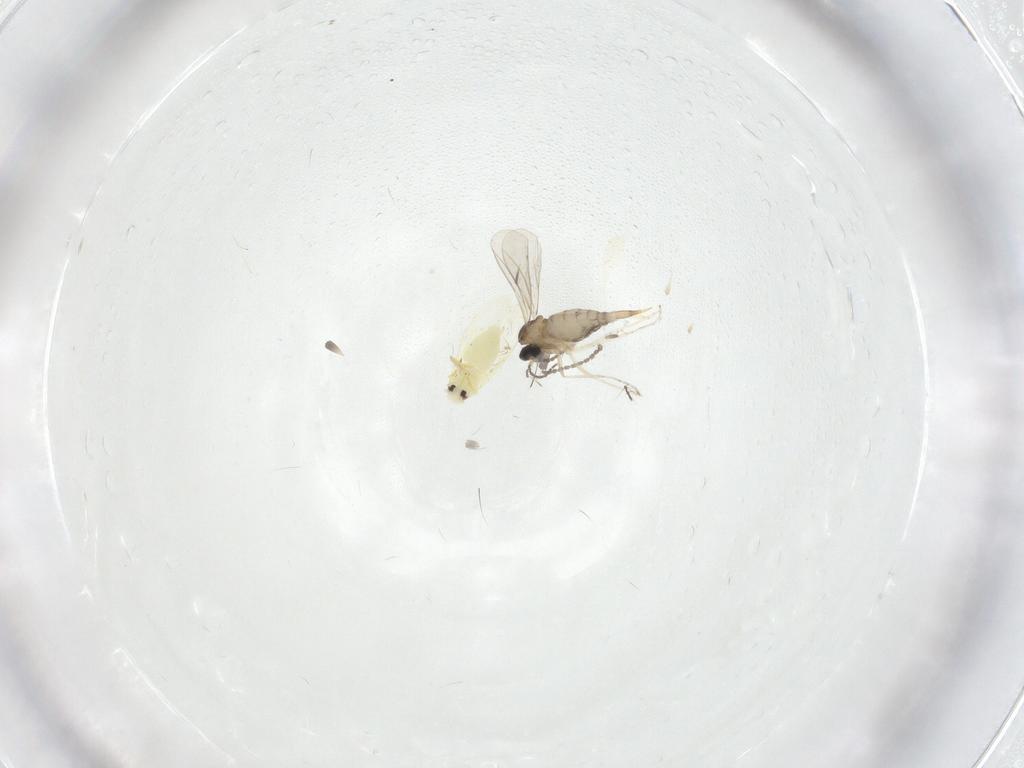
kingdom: Animalia
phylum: Arthropoda
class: Insecta
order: Hemiptera
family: Aleyrodidae
